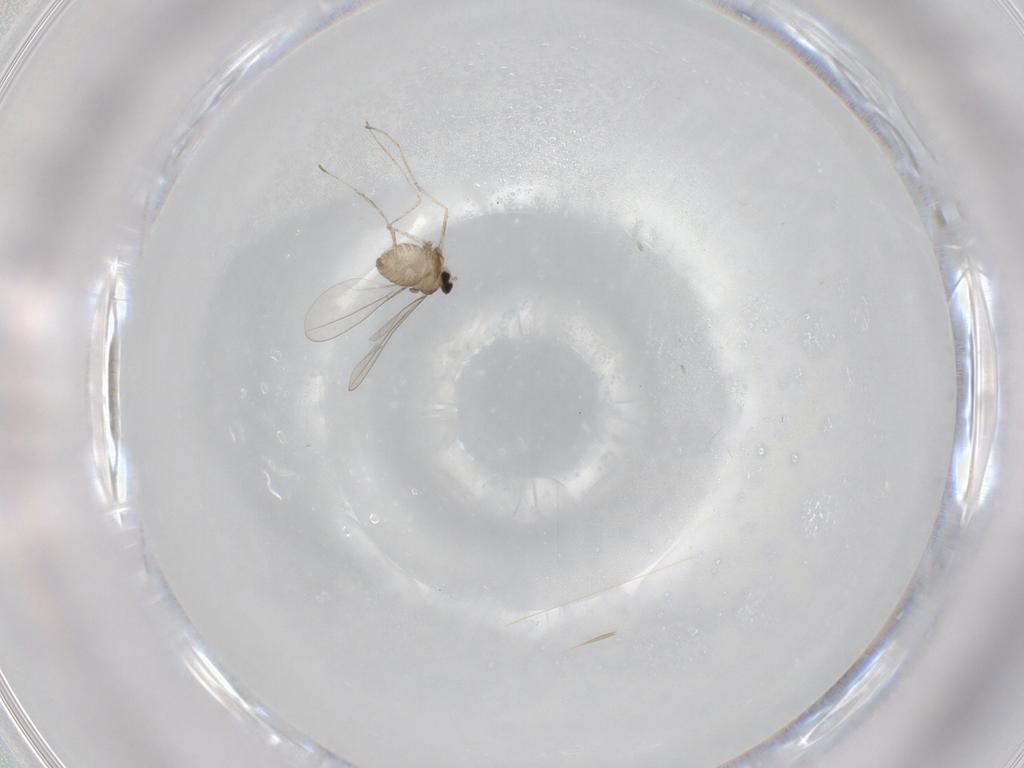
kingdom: Animalia
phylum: Arthropoda
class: Insecta
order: Diptera
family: Cecidomyiidae
